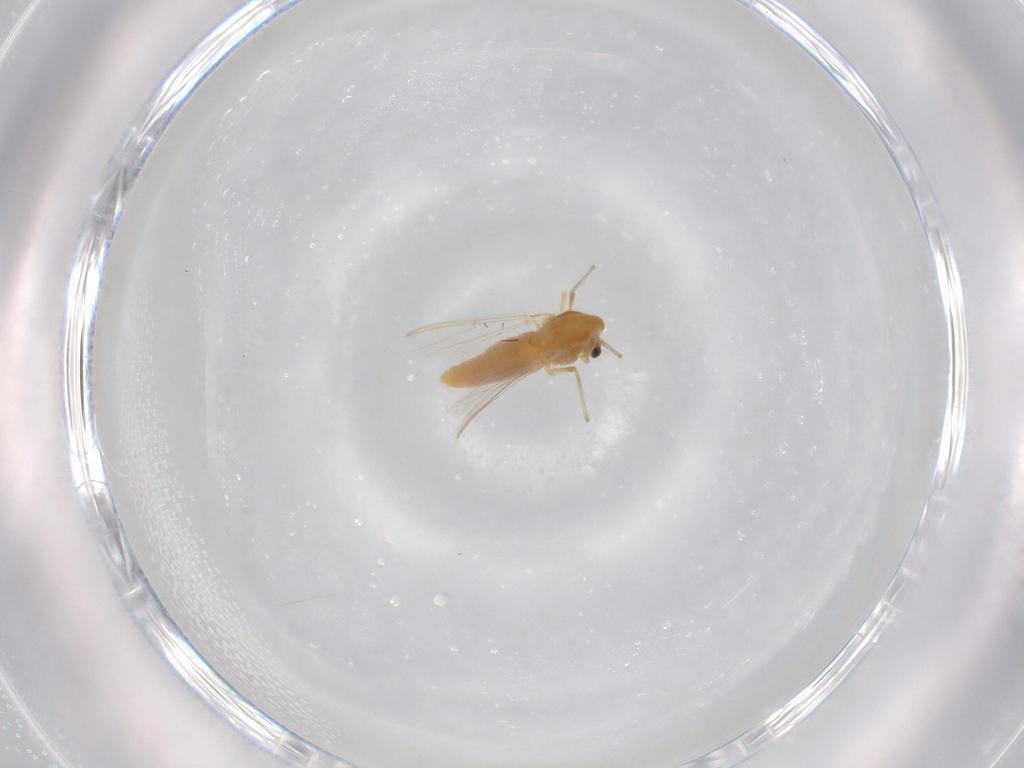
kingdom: Animalia
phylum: Arthropoda
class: Insecta
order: Diptera
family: Chironomidae
